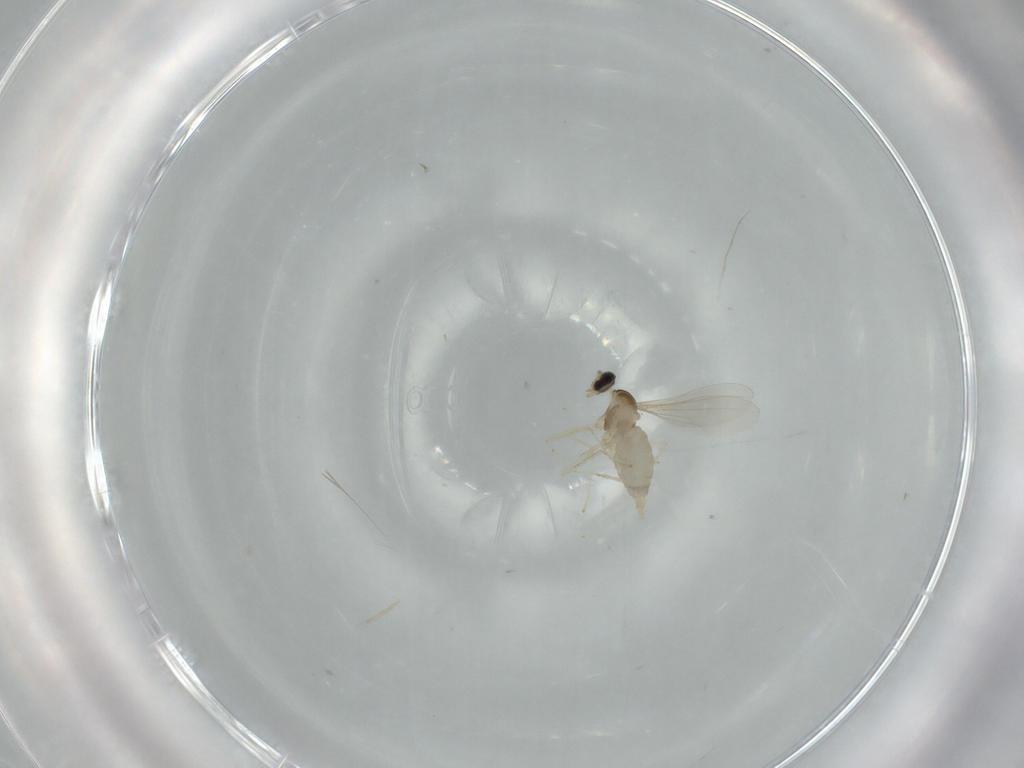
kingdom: Animalia
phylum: Arthropoda
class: Insecta
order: Diptera
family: Cecidomyiidae
